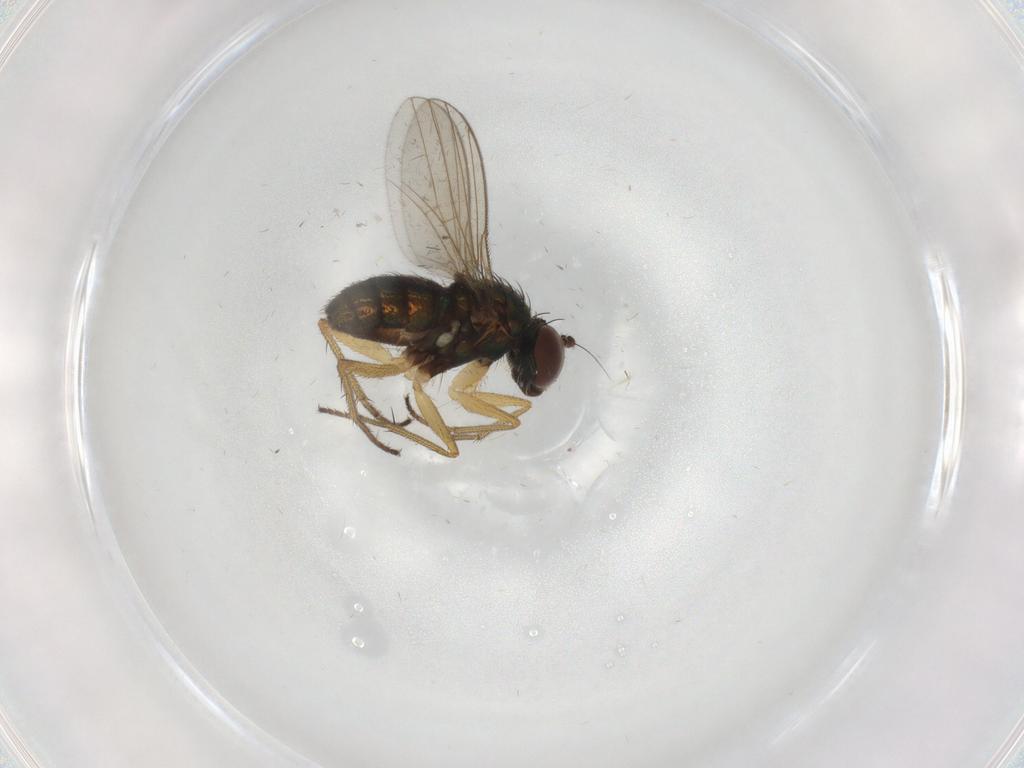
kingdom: Animalia
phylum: Arthropoda
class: Insecta
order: Diptera
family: Dolichopodidae
